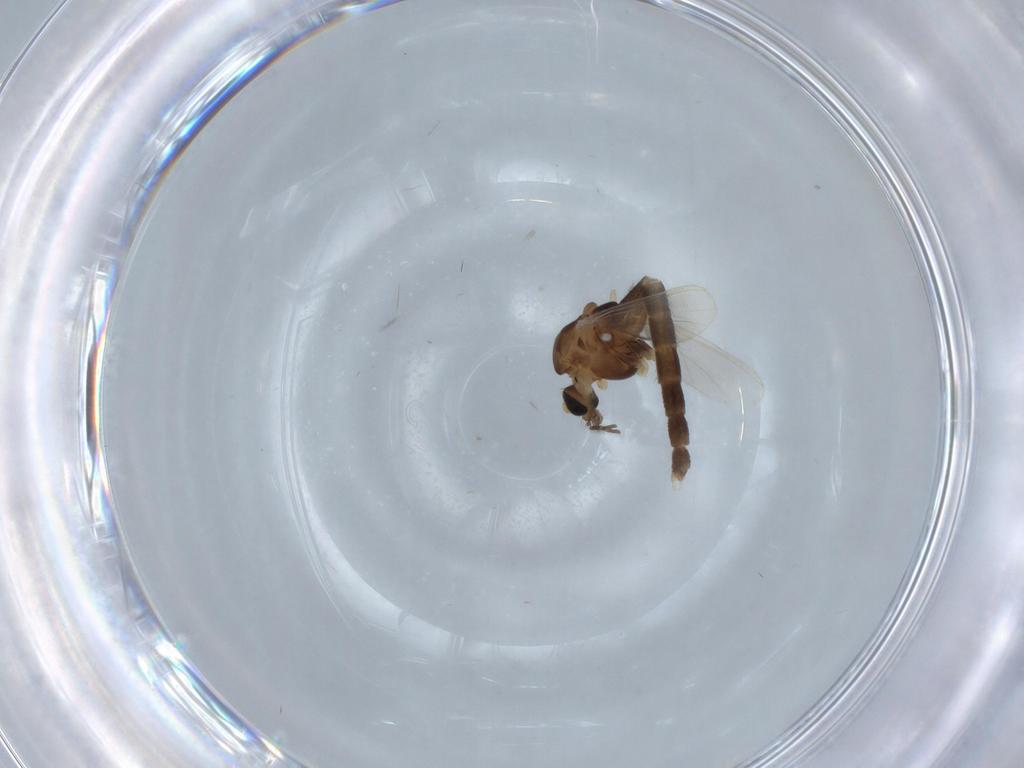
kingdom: Animalia
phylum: Arthropoda
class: Insecta
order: Diptera
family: Chironomidae
